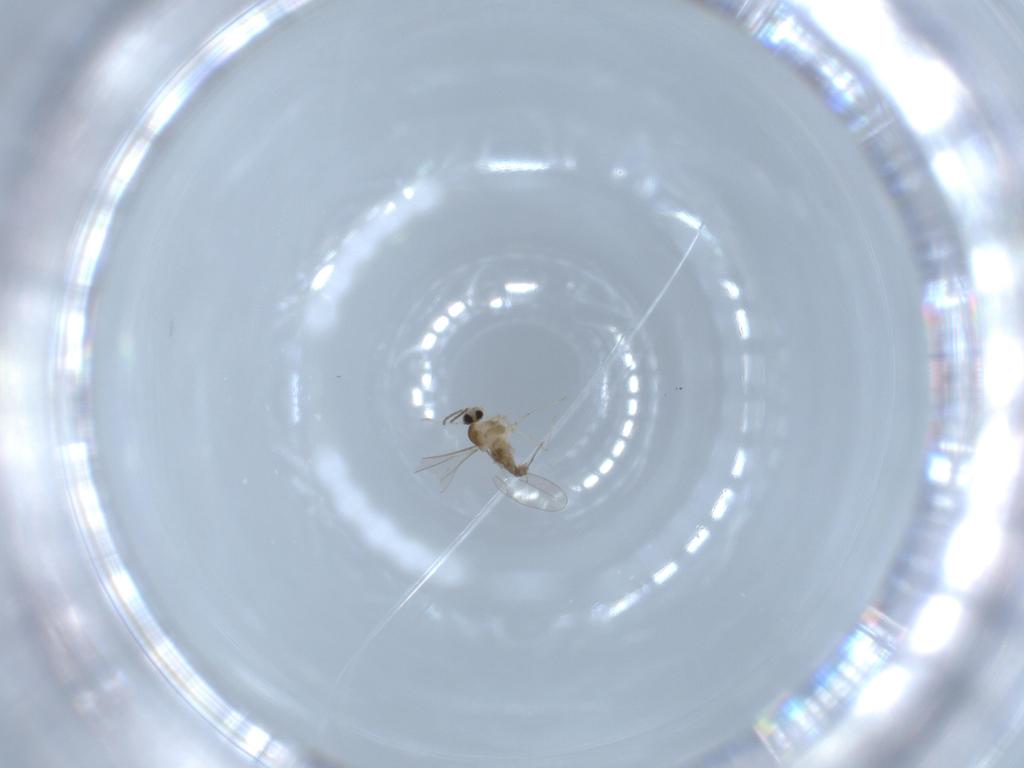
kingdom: Animalia
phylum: Arthropoda
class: Insecta
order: Diptera
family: Cecidomyiidae
